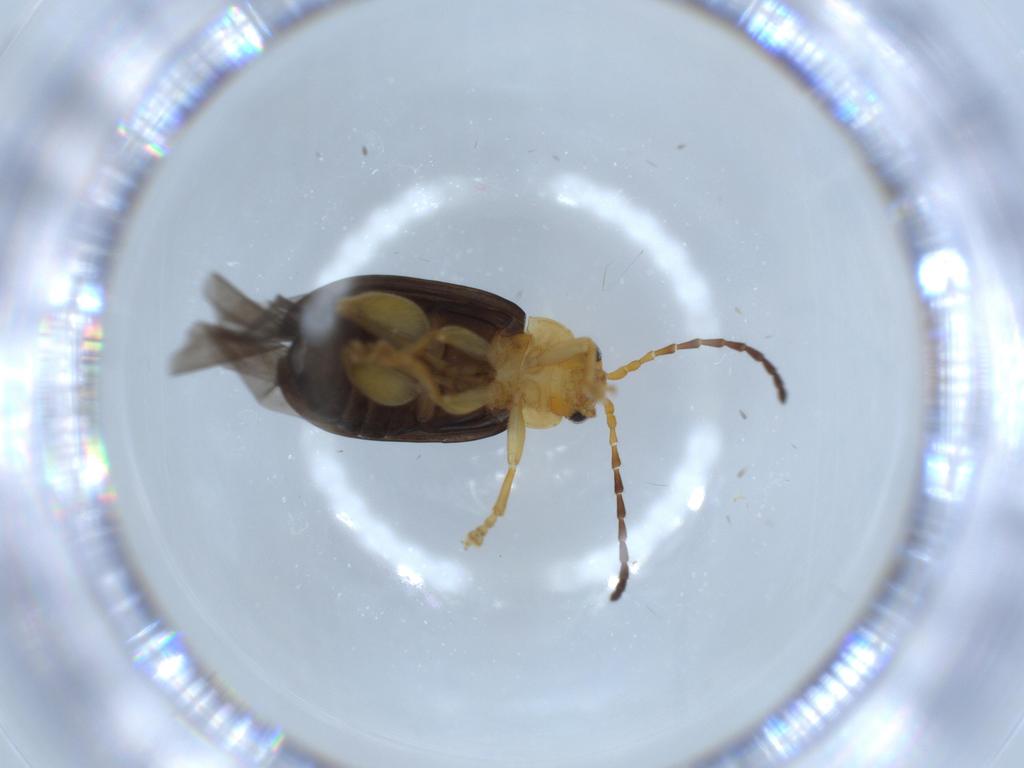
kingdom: Animalia
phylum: Arthropoda
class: Insecta
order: Coleoptera
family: Chrysomelidae
